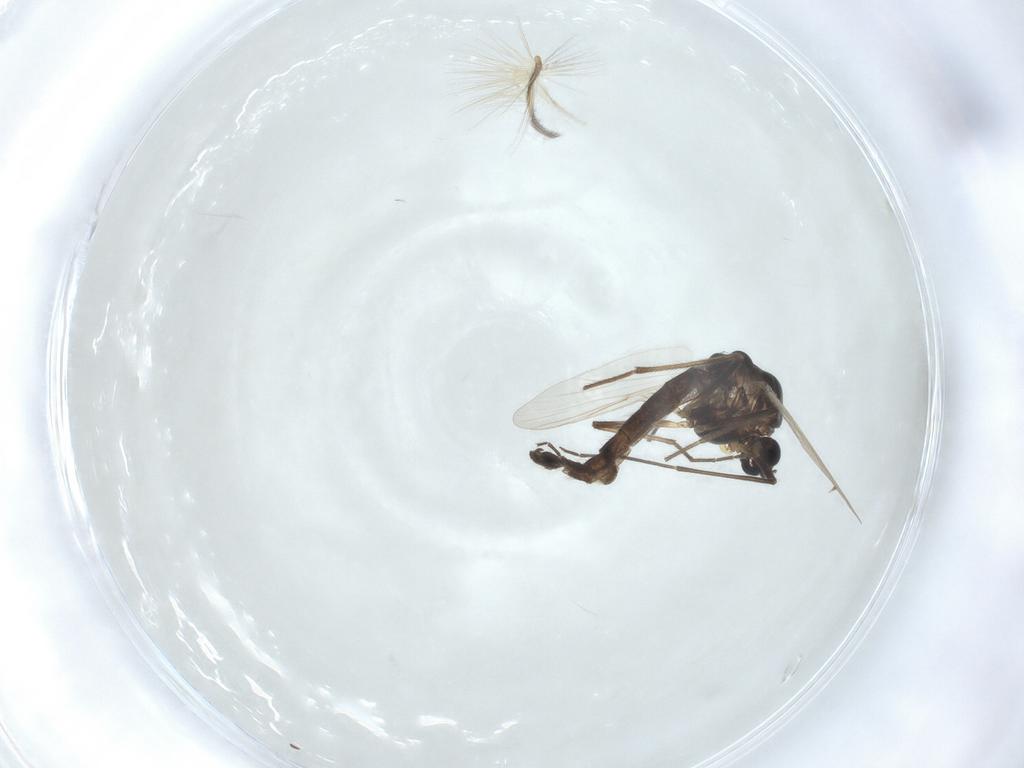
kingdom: Animalia
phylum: Arthropoda
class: Insecta
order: Diptera
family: Chironomidae
